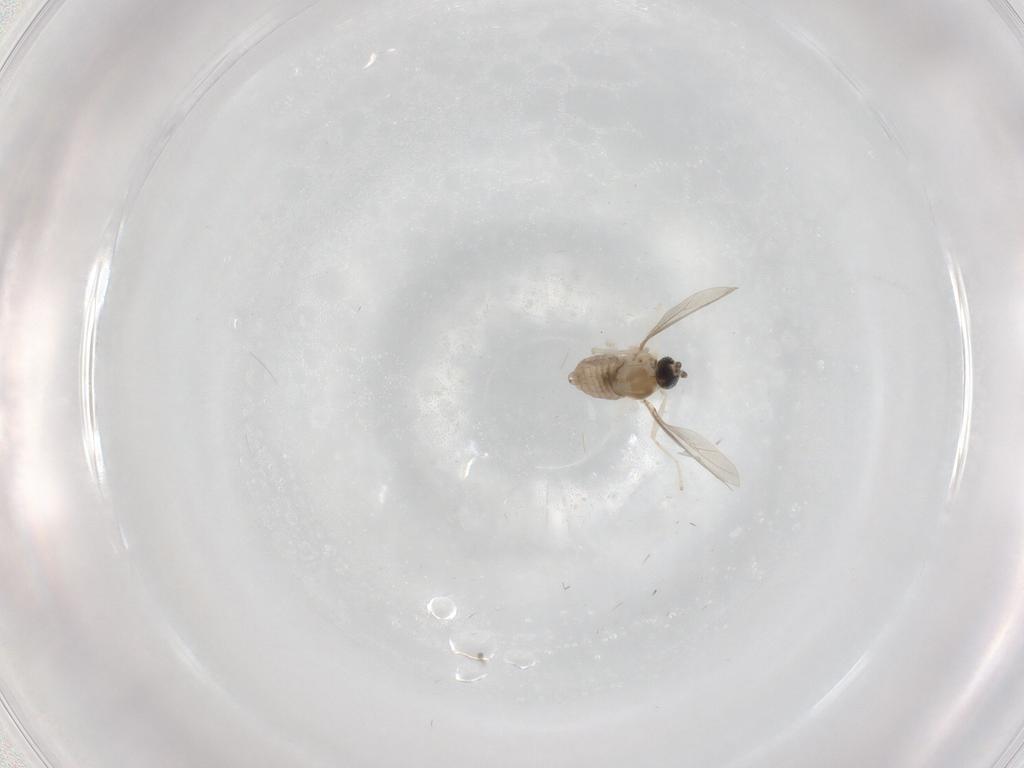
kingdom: Animalia
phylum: Arthropoda
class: Insecta
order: Diptera
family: Cecidomyiidae
